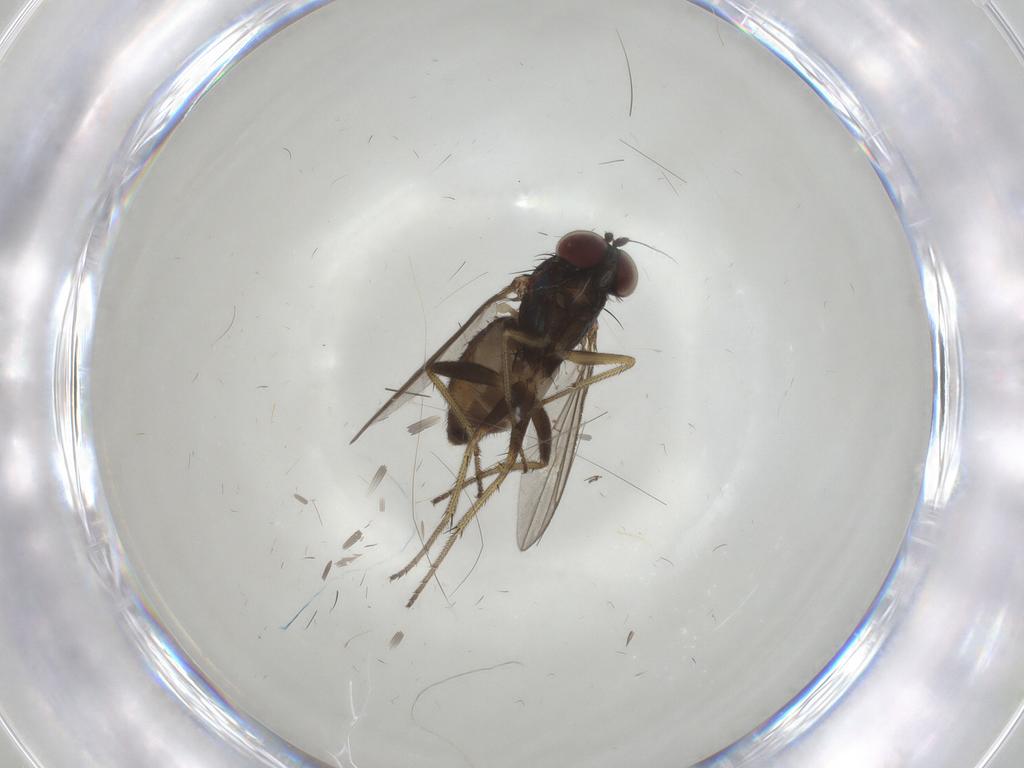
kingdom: Animalia
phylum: Arthropoda
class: Insecta
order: Diptera
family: Dolichopodidae
